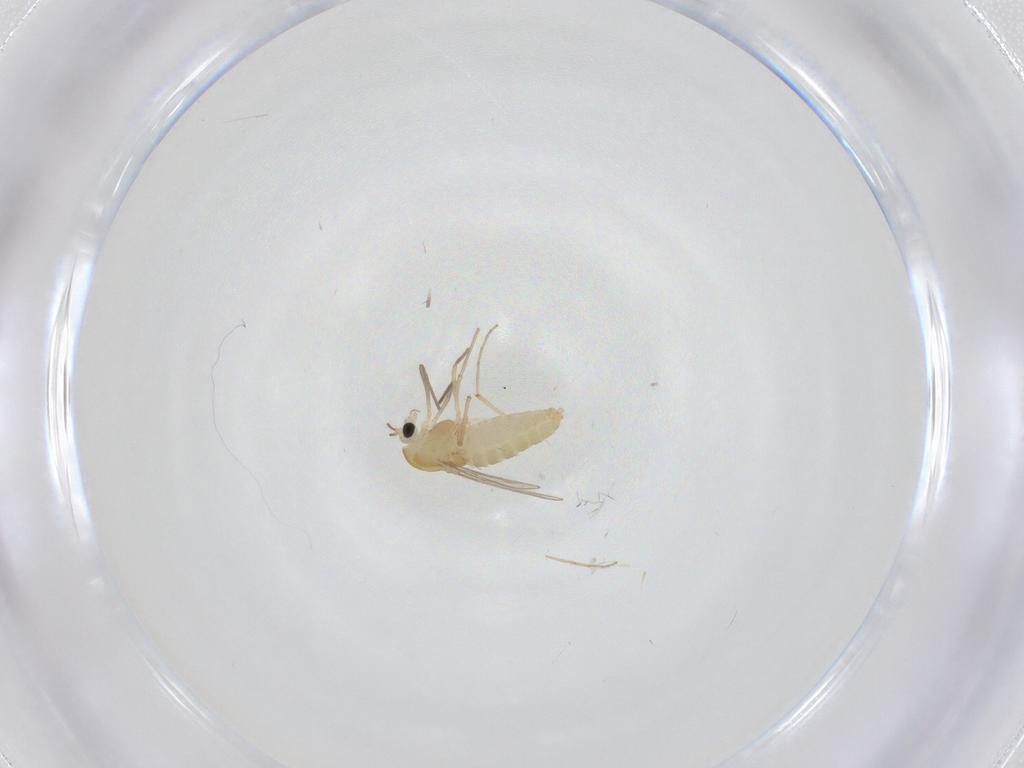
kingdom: Animalia
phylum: Arthropoda
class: Insecta
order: Diptera
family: Chironomidae
